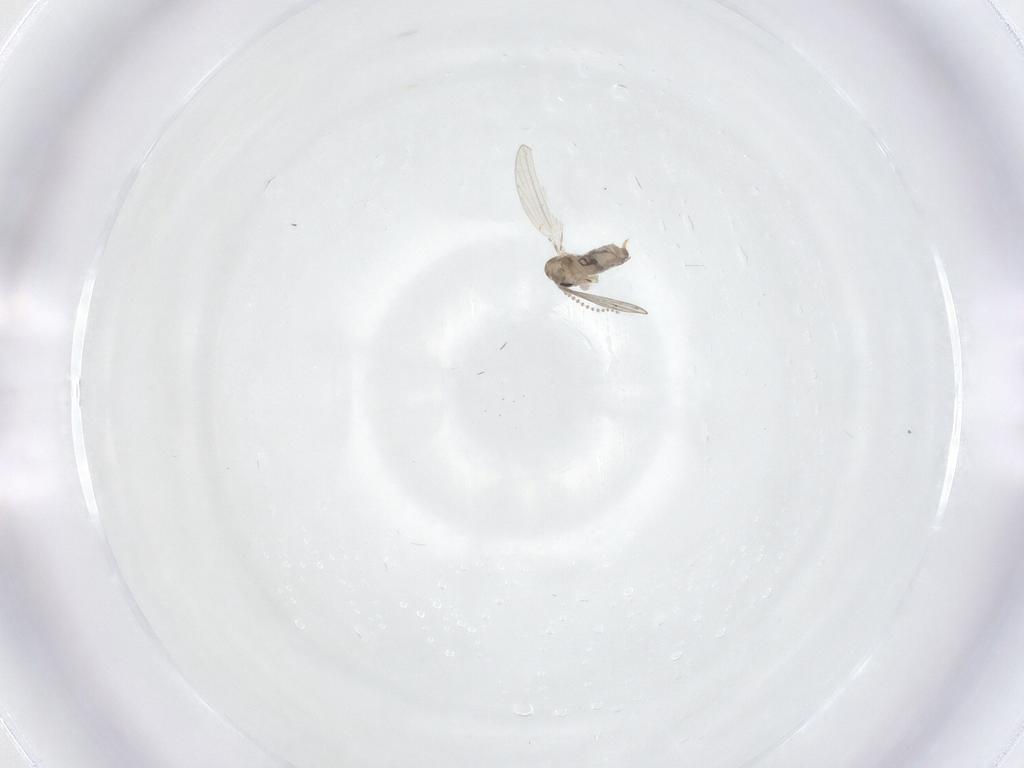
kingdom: Animalia
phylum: Arthropoda
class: Insecta
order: Diptera
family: Psychodidae
